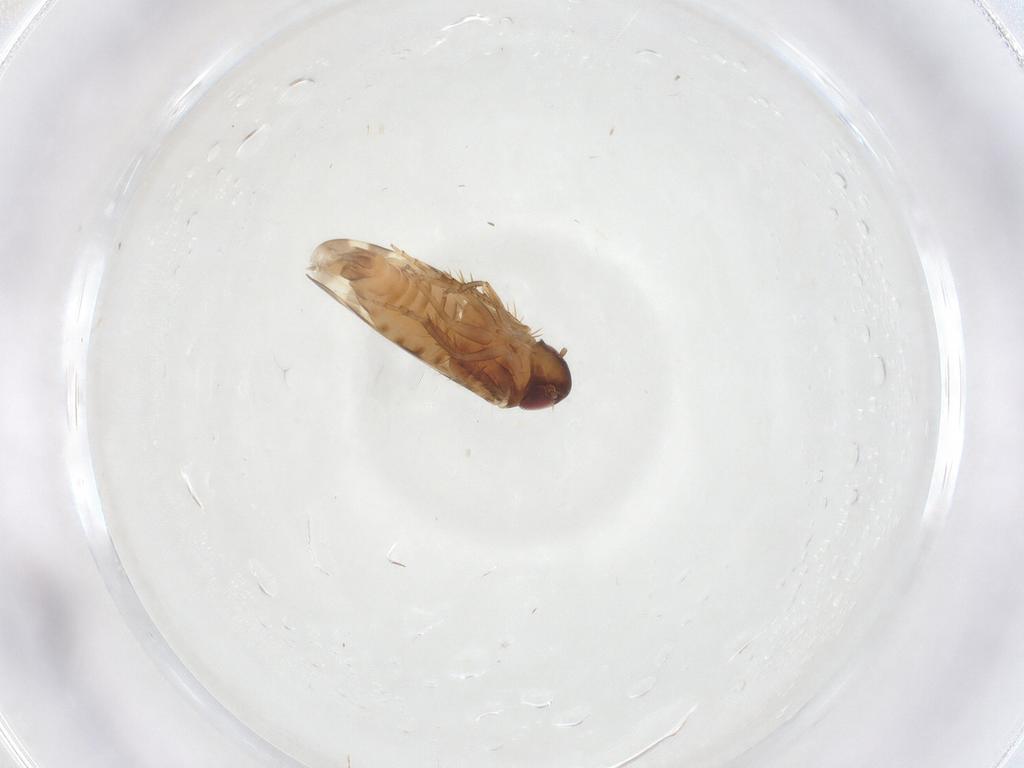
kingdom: Animalia
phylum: Arthropoda
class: Insecta
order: Hemiptera
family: Cicadellidae
